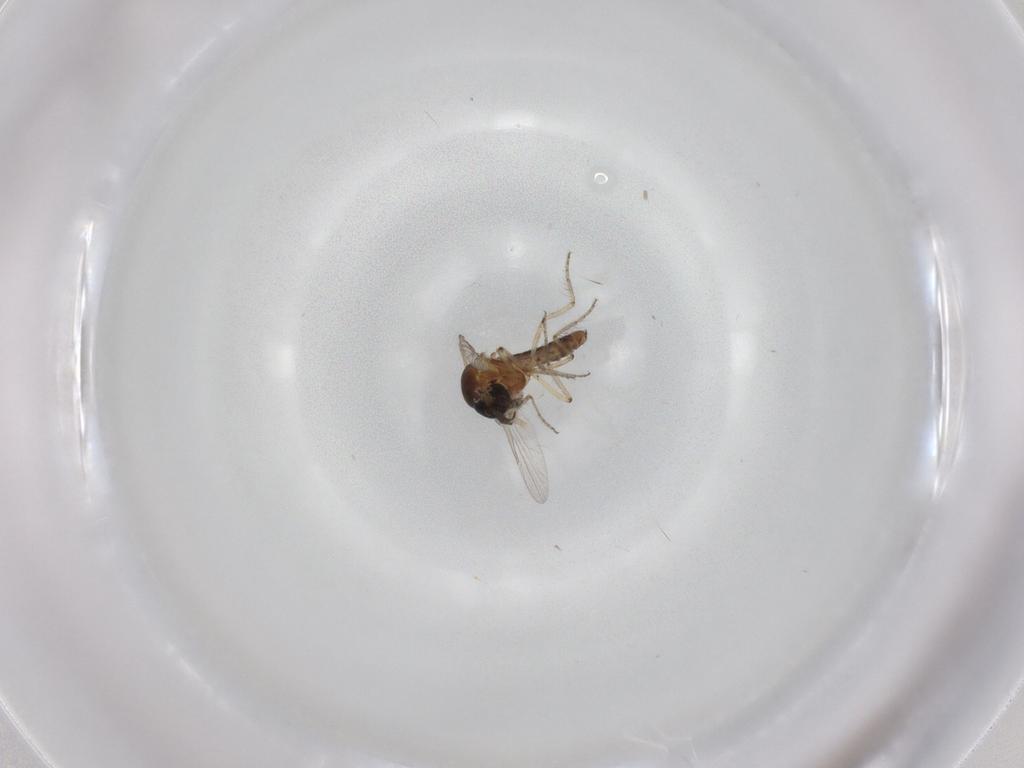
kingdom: Animalia
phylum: Arthropoda
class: Insecta
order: Diptera
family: Ceratopogonidae
